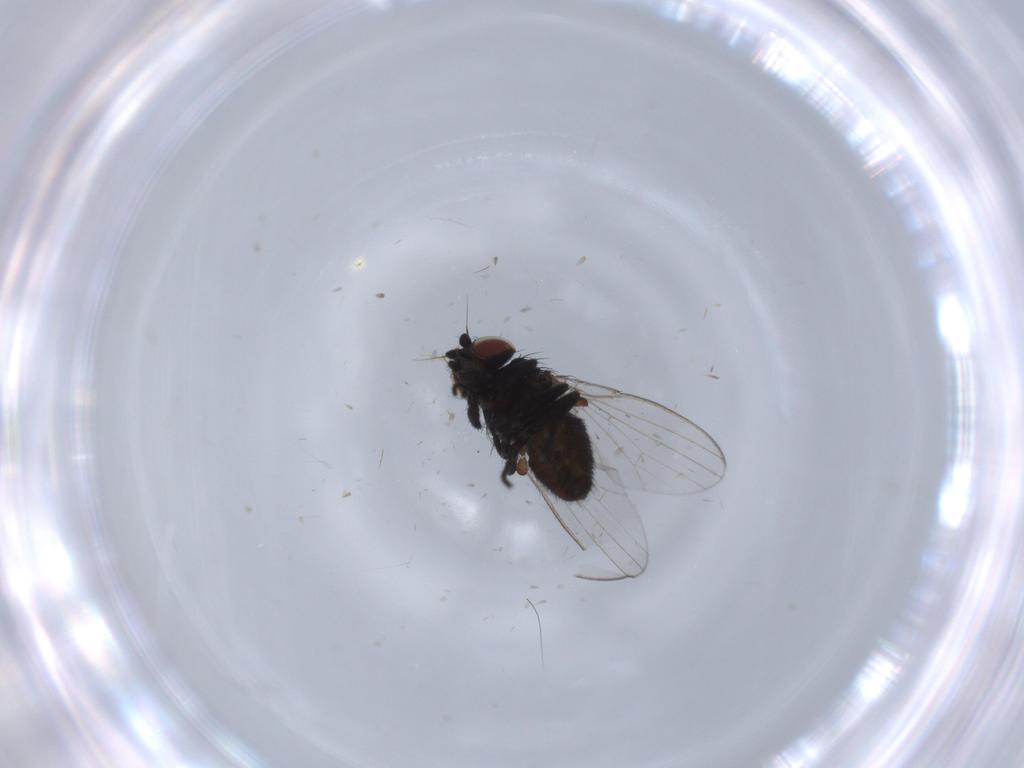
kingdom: Animalia
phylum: Arthropoda
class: Insecta
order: Diptera
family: Milichiidae
